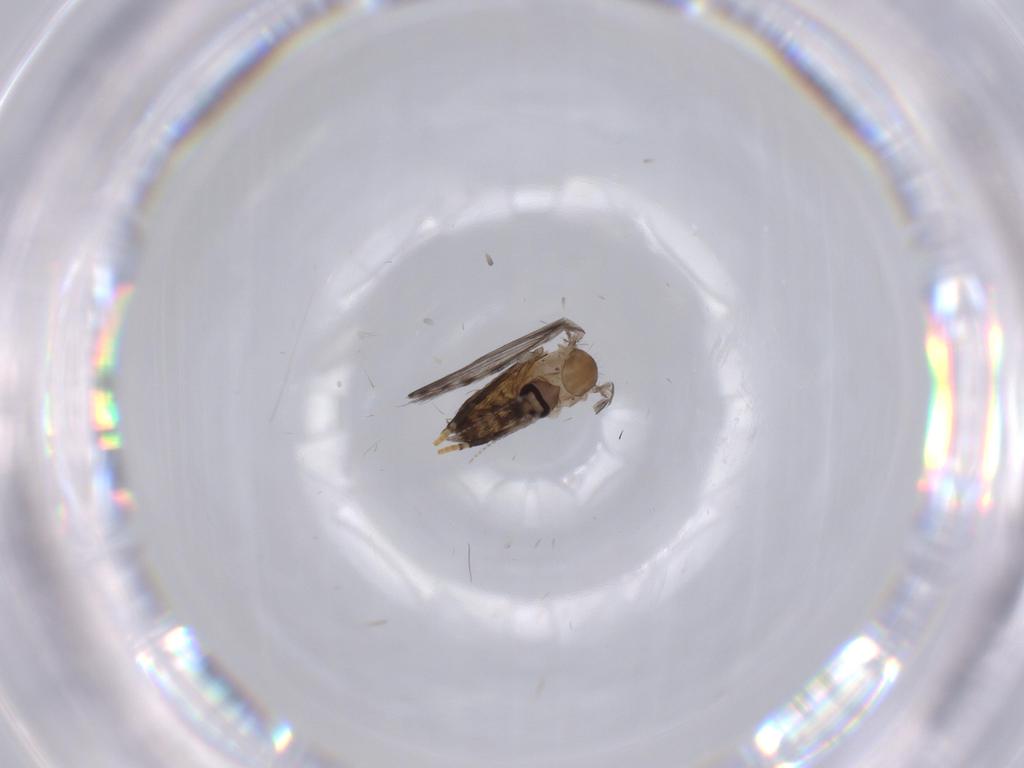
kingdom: Animalia
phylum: Arthropoda
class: Insecta
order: Diptera
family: Psychodidae
